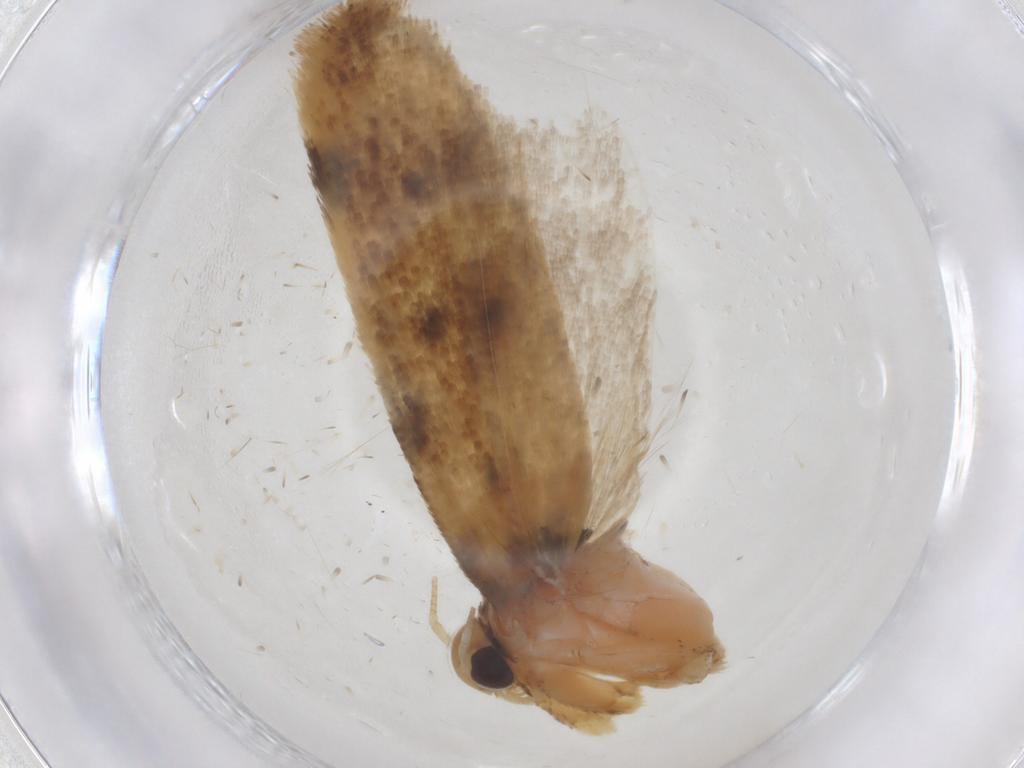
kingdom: Animalia
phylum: Arthropoda
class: Insecta
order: Lepidoptera
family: Gelechiidae
